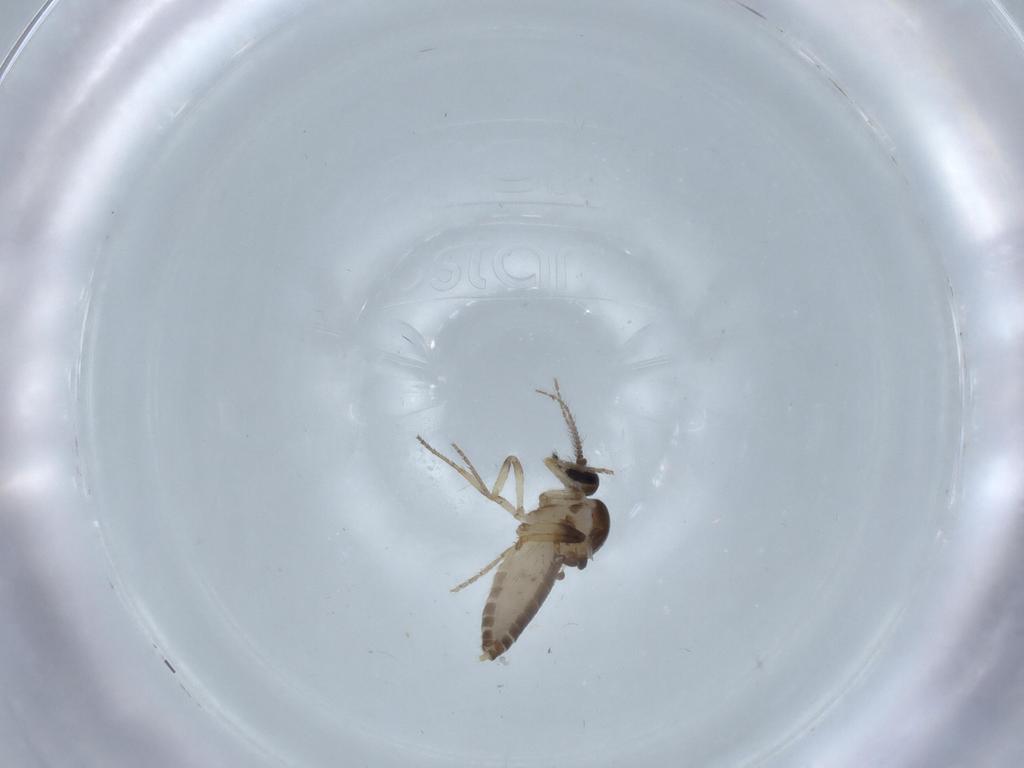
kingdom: Animalia
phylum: Arthropoda
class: Insecta
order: Diptera
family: Ceratopogonidae
